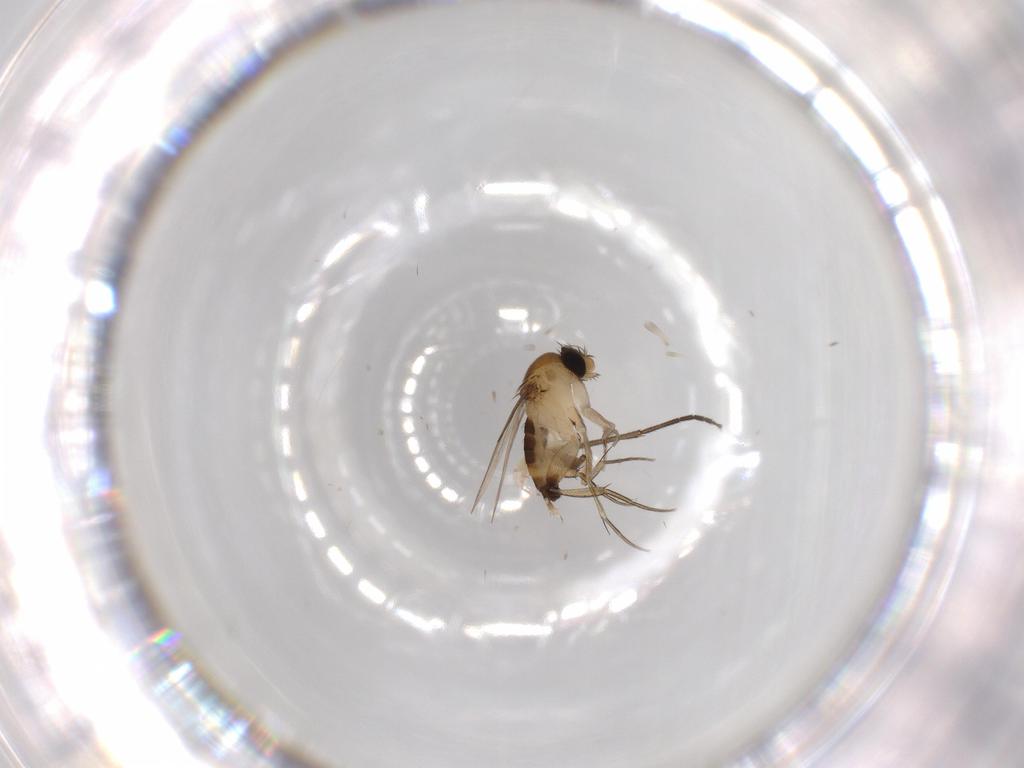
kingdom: Animalia
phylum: Arthropoda
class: Insecta
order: Diptera
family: Phoridae
